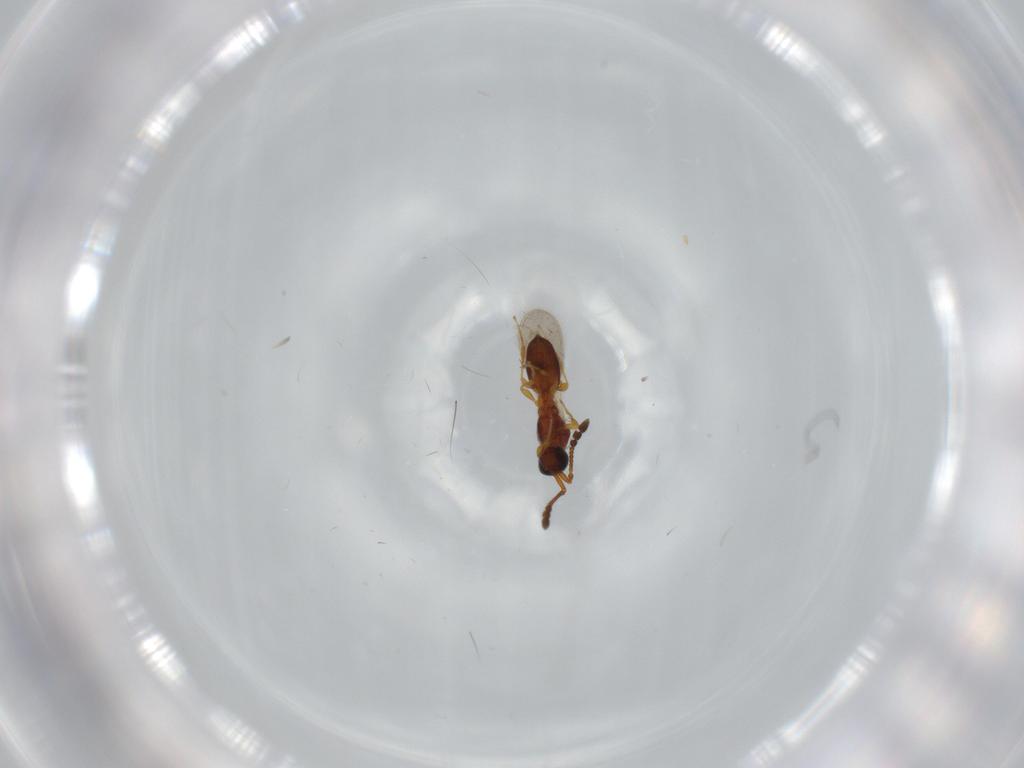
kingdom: Animalia
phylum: Arthropoda
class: Insecta
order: Hymenoptera
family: Diapriidae
